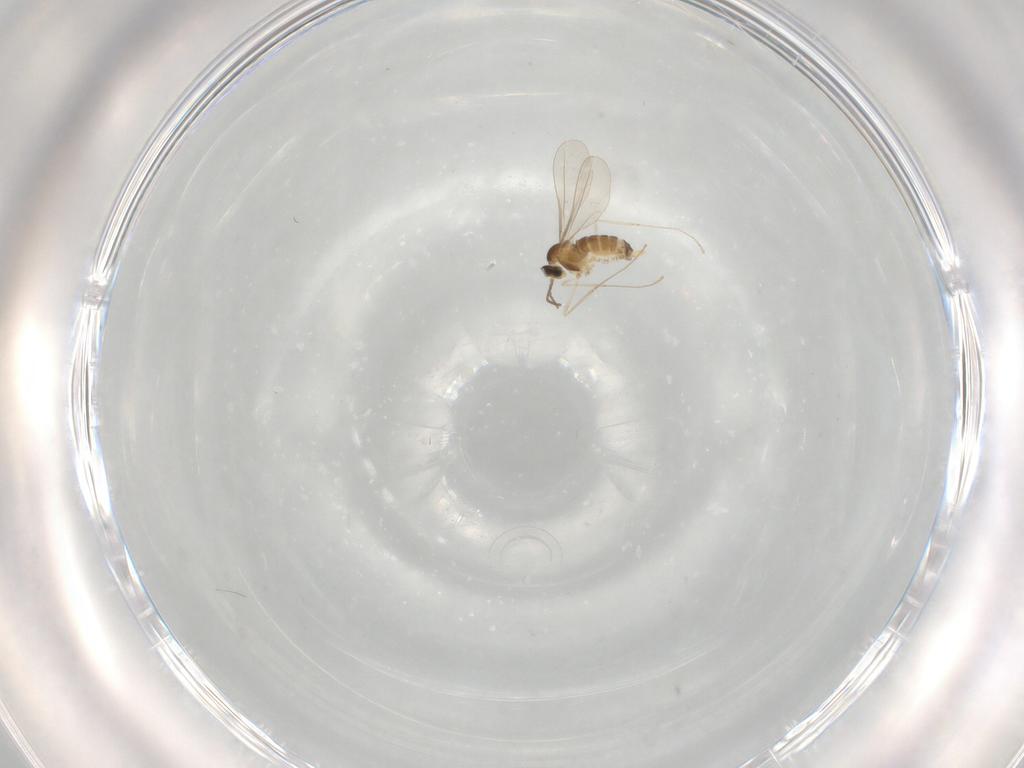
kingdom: Animalia
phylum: Arthropoda
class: Insecta
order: Diptera
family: Cecidomyiidae
